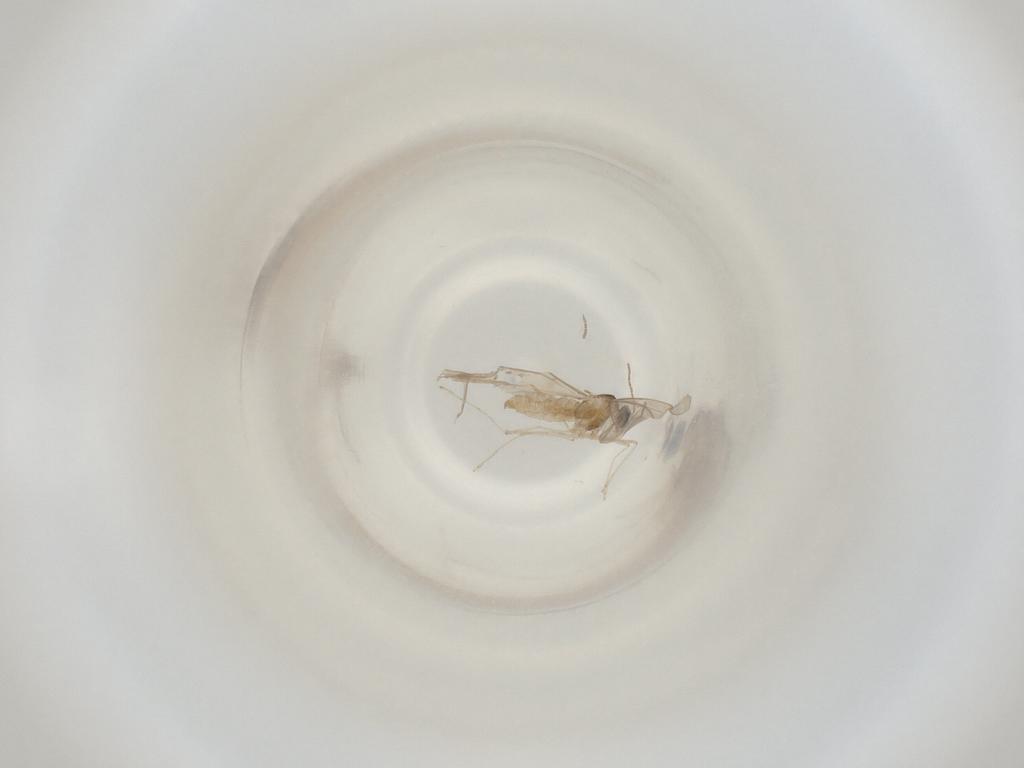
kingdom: Animalia
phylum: Arthropoda
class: Insecta
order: Diptera
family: Cecidomyiidae
